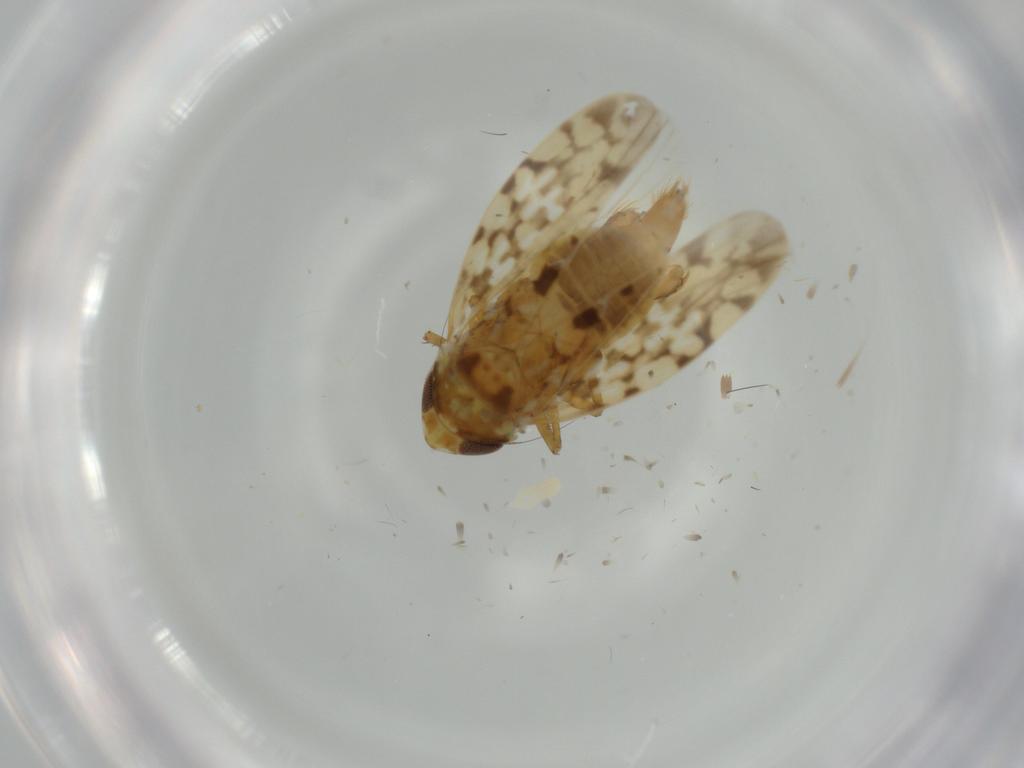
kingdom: Animalia
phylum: Arthropoda
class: Insecta
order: Hemiptera
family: Cicadellidae
